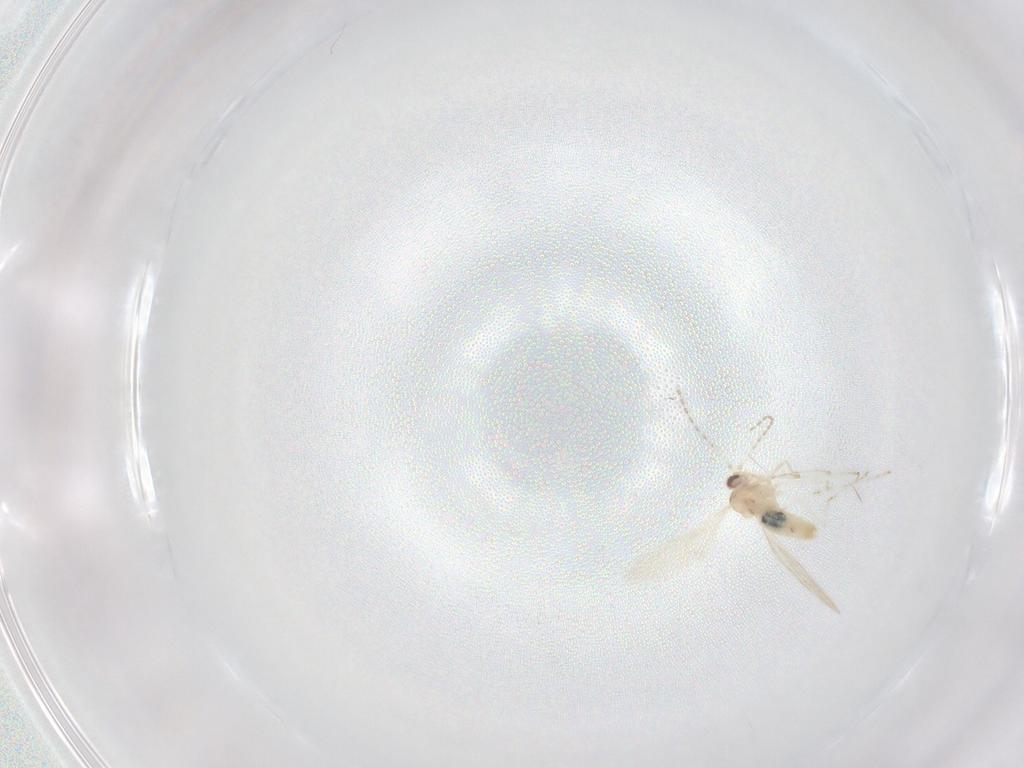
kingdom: Animalia
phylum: Arthropoda
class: Insecta
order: Diptera
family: Cecidomyiidae
